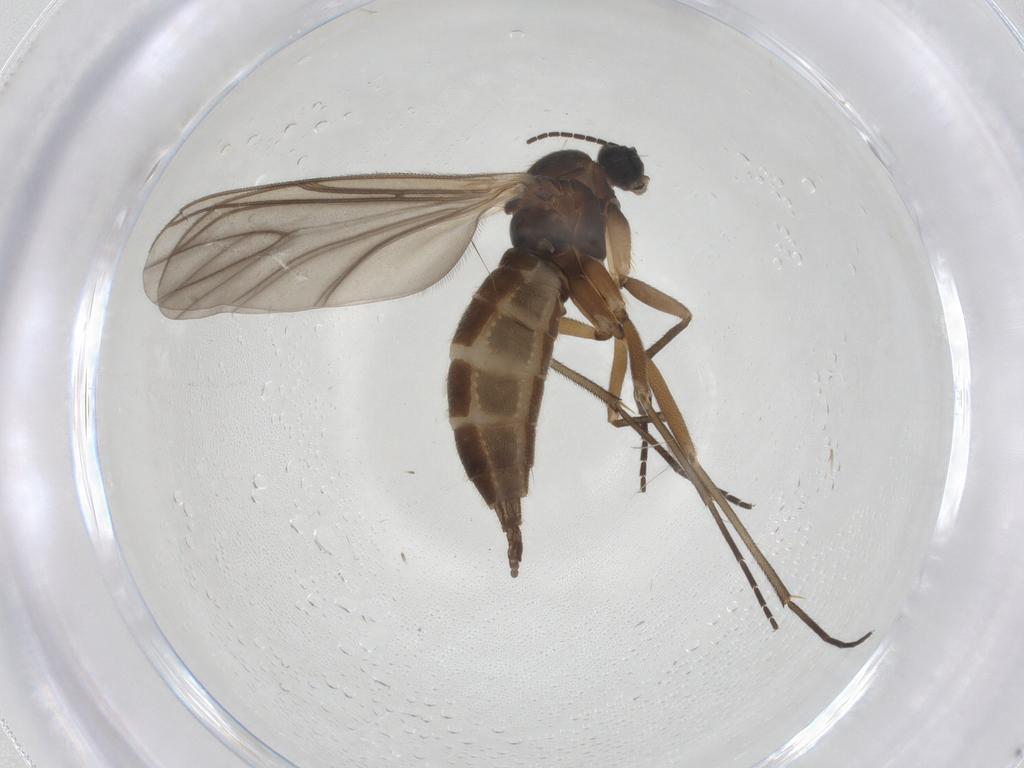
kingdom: Animalia
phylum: Arthropoda
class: Insecta
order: Diptera
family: Sciaridae
